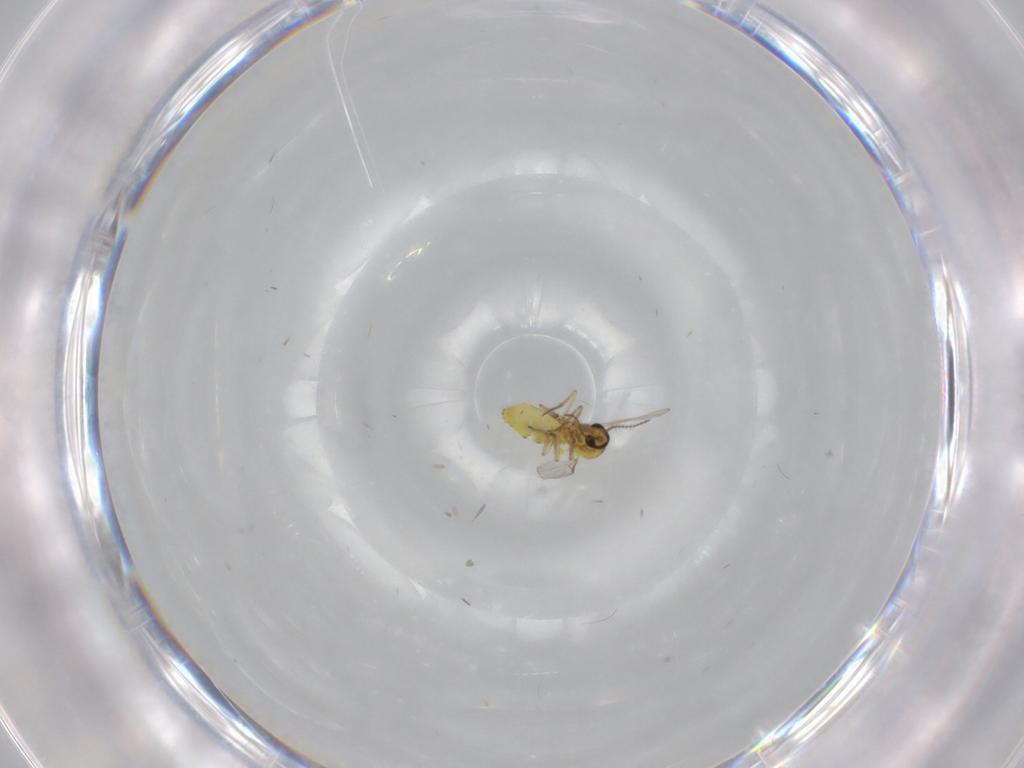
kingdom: Animalia
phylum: Arthropoda
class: Insecta
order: Diptera
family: Ceratopogonidae
